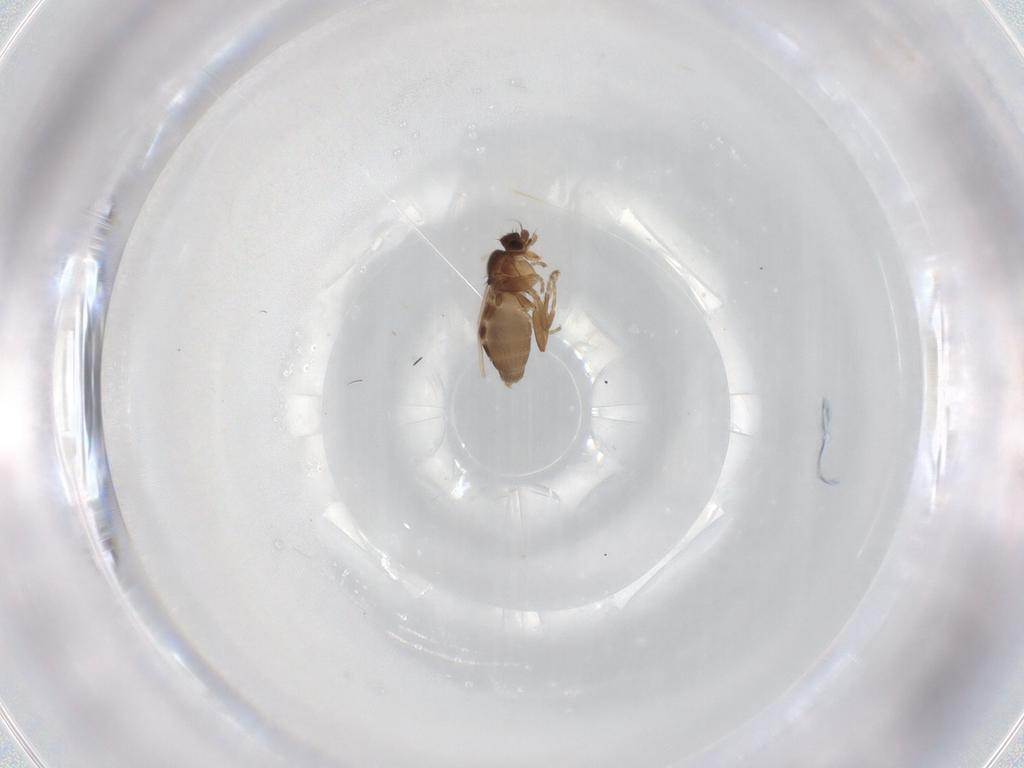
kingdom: Animalia
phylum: Arthropoda
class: Insecta
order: Diptera
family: Phoridae
